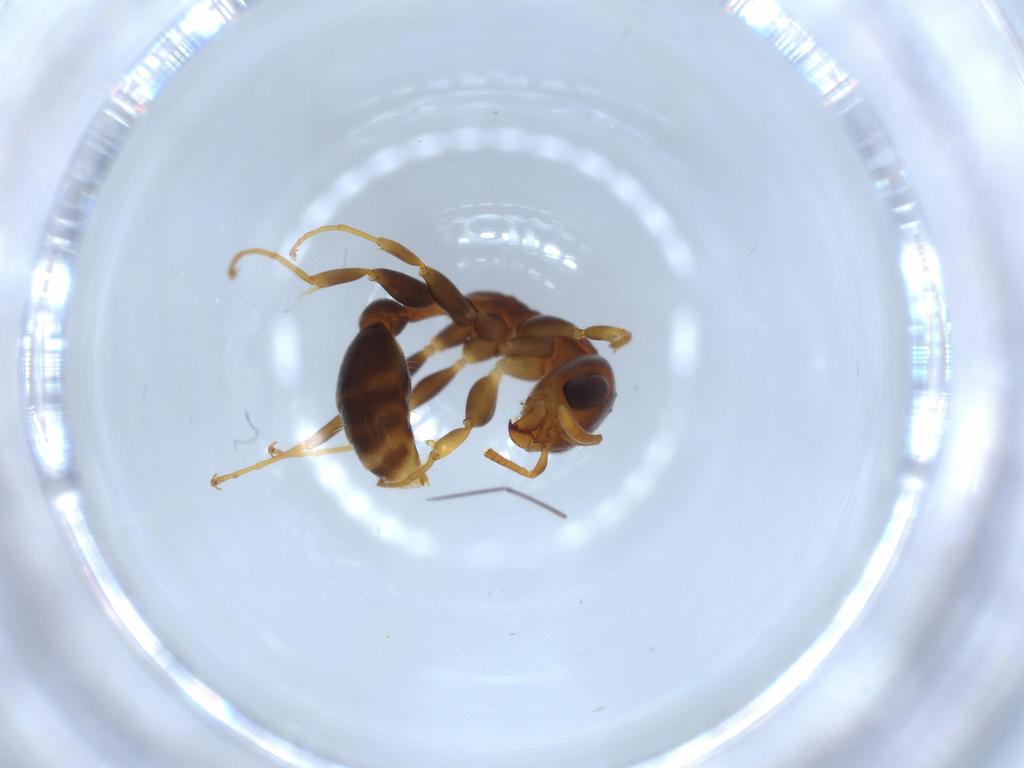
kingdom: Animalia
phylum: Arthropoda
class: Insecta
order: Hymenoptera
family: Formicidae
